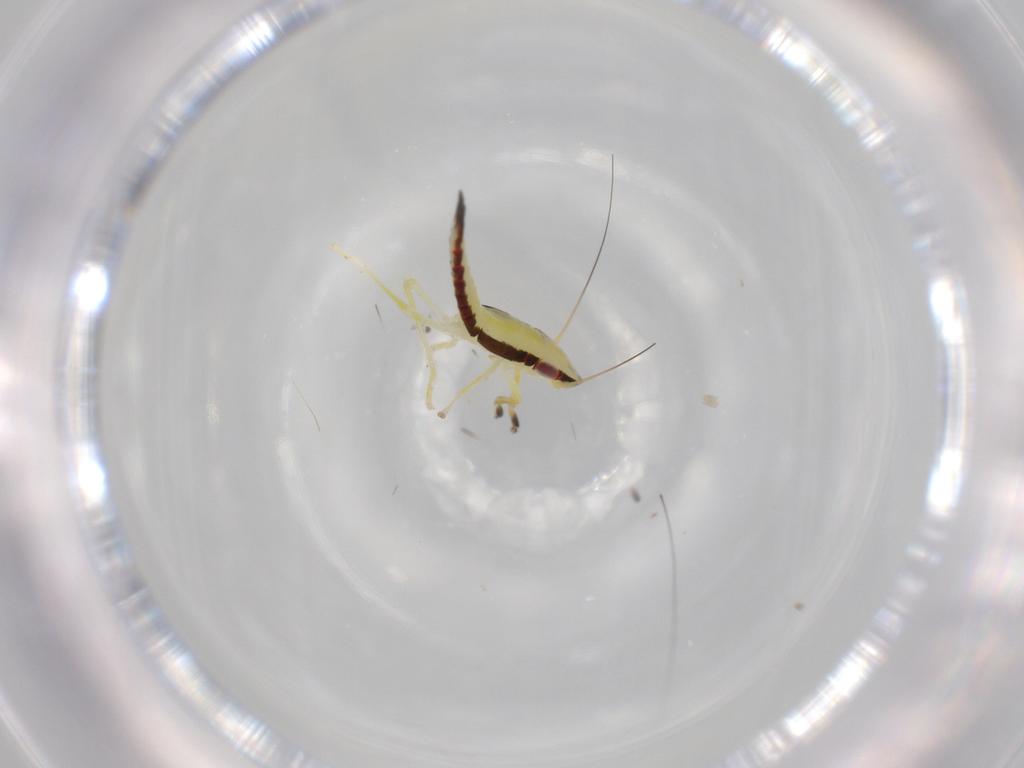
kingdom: Animalia
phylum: Arthropoda
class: Insecta
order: Hemiptera
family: Cicadellidae
